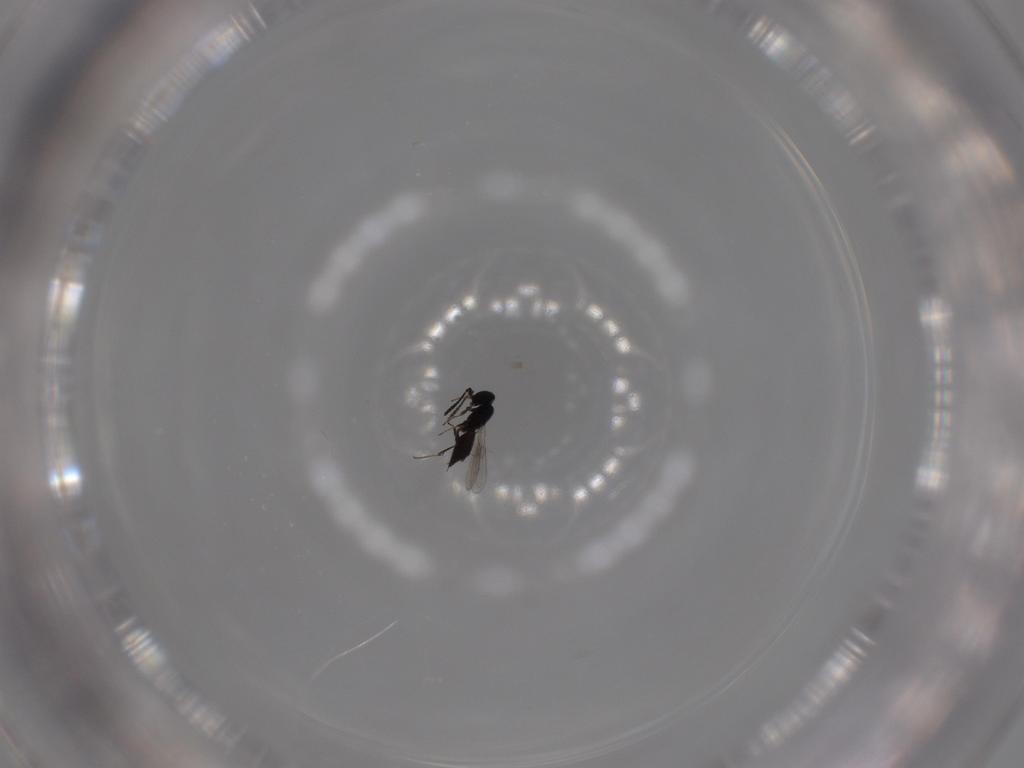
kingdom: Animalia
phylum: Arthropoda
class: Insecta
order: Hymenoptera
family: Scelionidae
